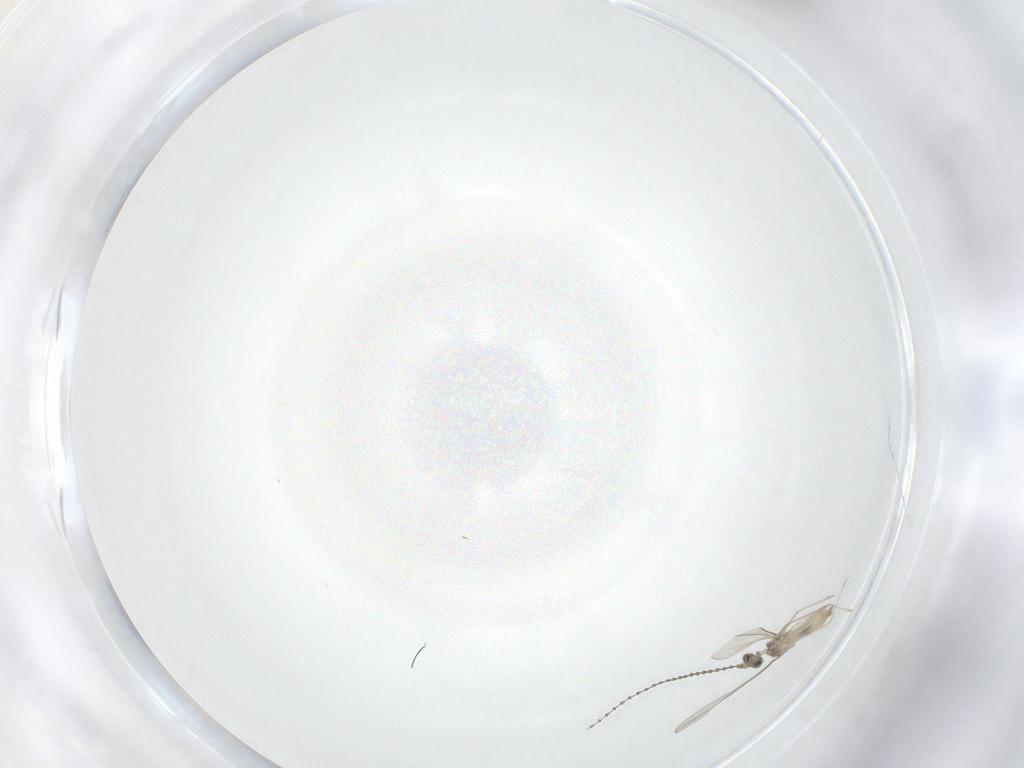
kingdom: Animalia
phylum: Arthropoda
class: Insecta
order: Diptera
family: Cecidomyiidae
